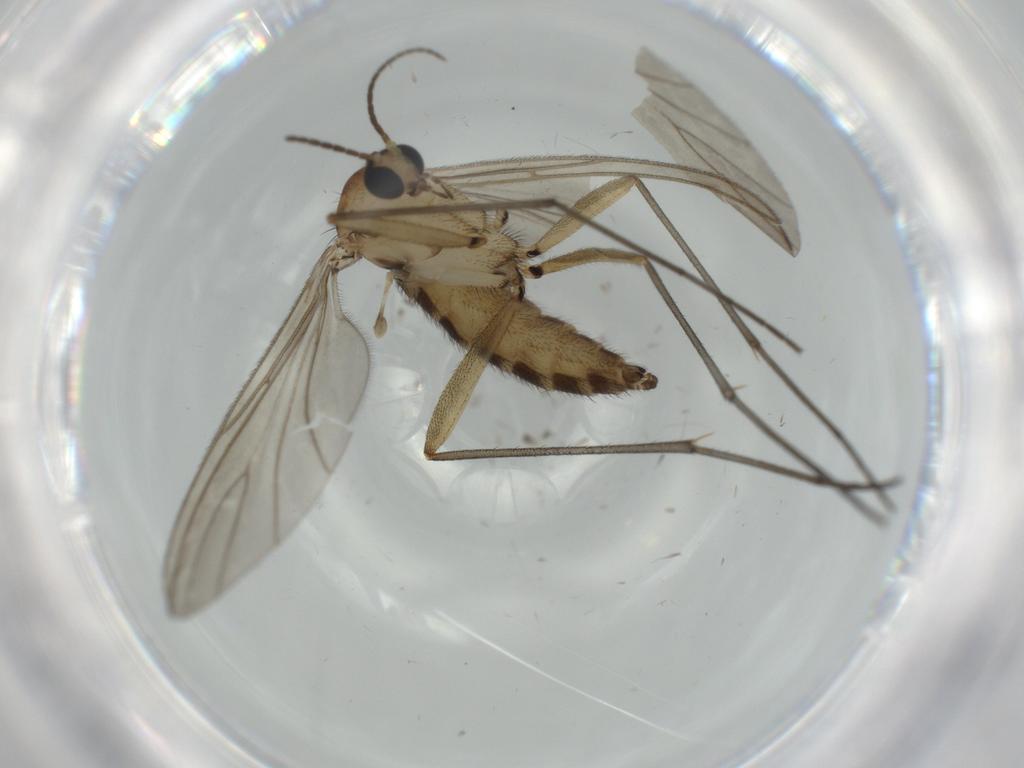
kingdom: Animalia
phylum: Arthropoda
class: Insecta
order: Diptera
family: Sciaridae
